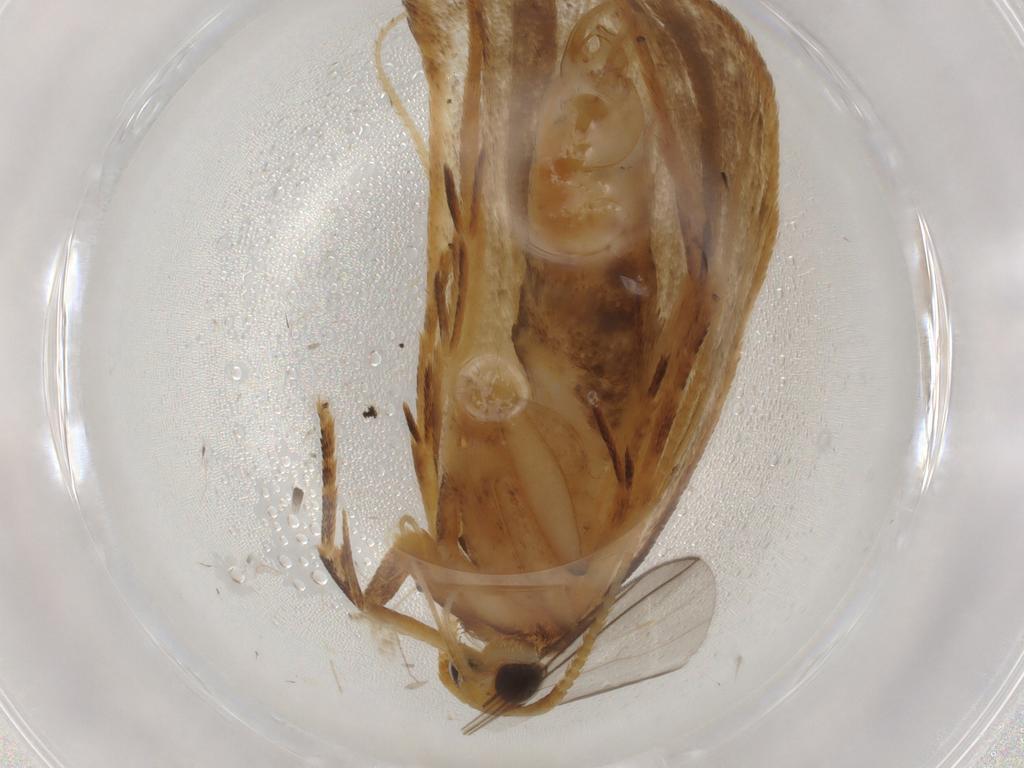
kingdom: Animalia
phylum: Arthropoda
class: Insecta
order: Lepidoptera
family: Lecithoceridae
